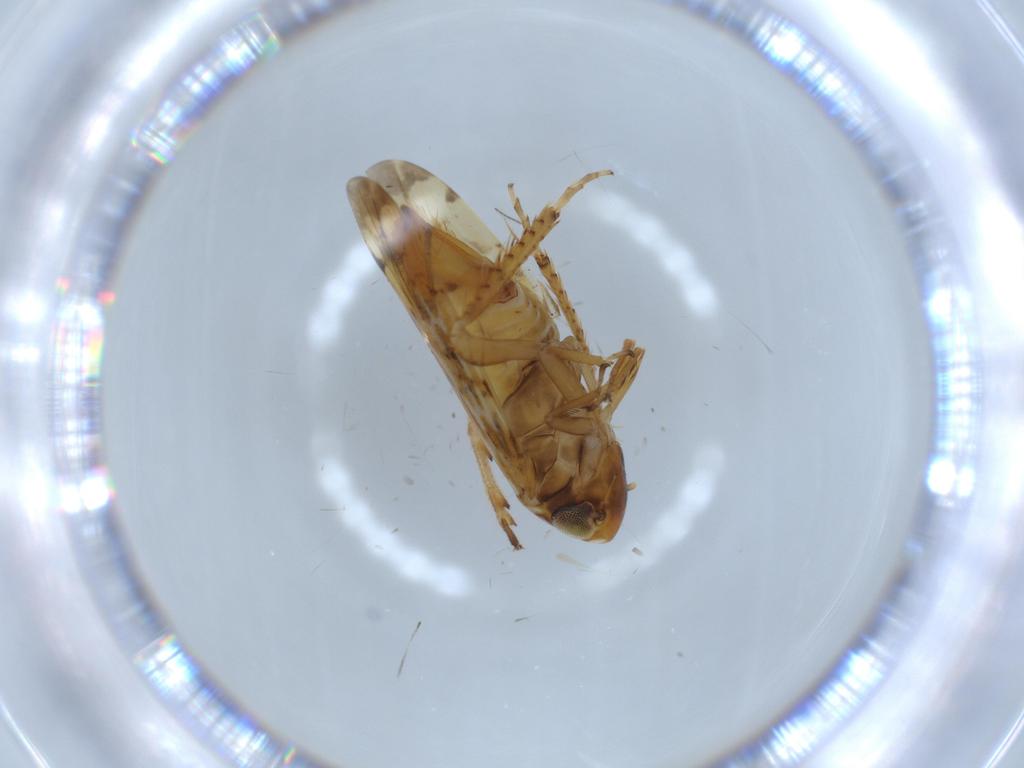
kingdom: Animalia
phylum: Arthropoda
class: Insecta
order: Hemiptera
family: Cicadellidae
